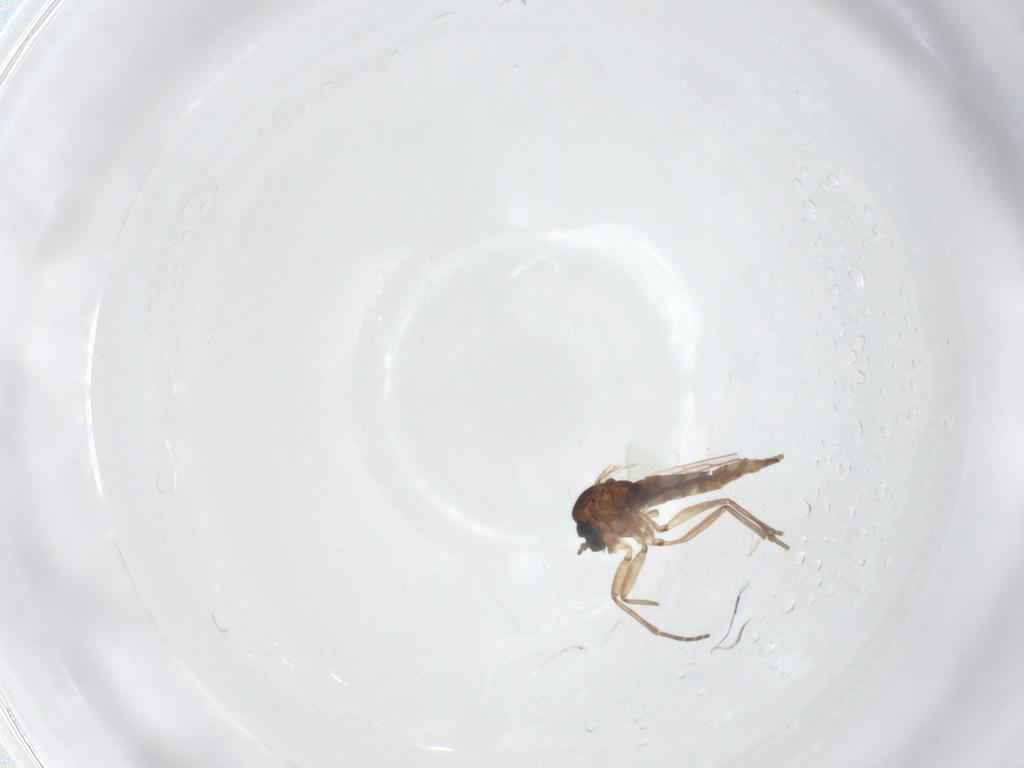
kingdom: Animalia
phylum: Arthropoda
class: Insecta
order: Diptera
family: Sciaridae
